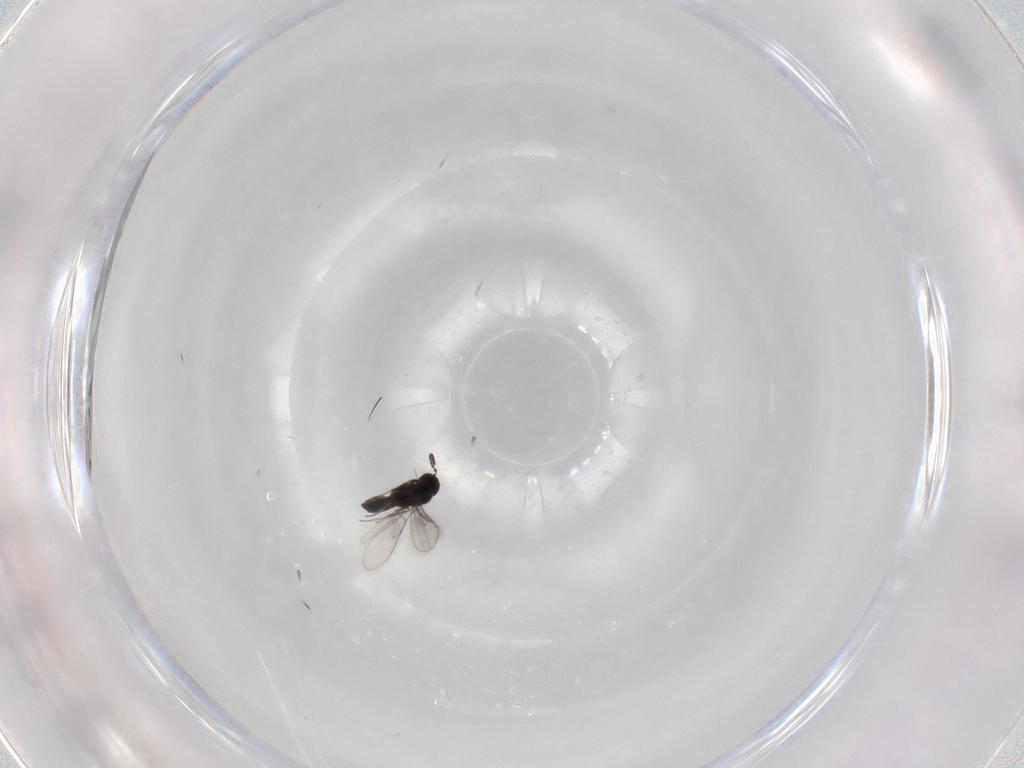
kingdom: Animalia
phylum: Arthropoda
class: Insecta
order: Hymenoptera
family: Scelionidae
